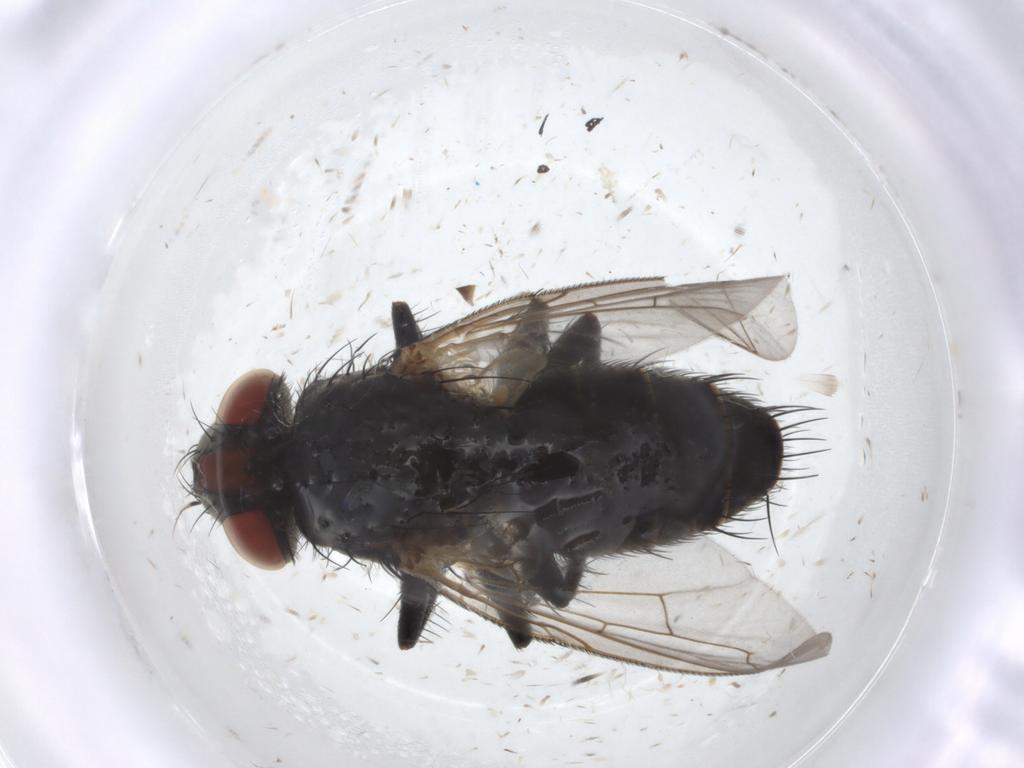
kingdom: Animalia
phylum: Arthropoda
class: Insecta
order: Diptera
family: Sarcophagidae
